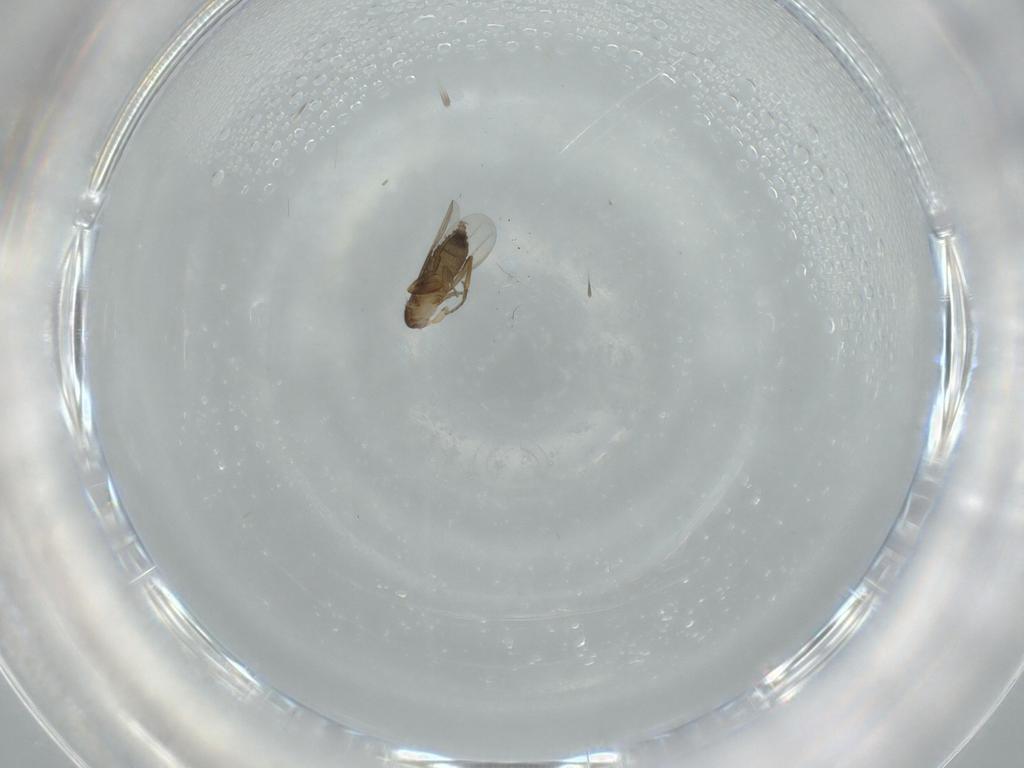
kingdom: Animalia
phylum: Arthropoda
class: Insecta
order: Diptera
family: Phoridae
